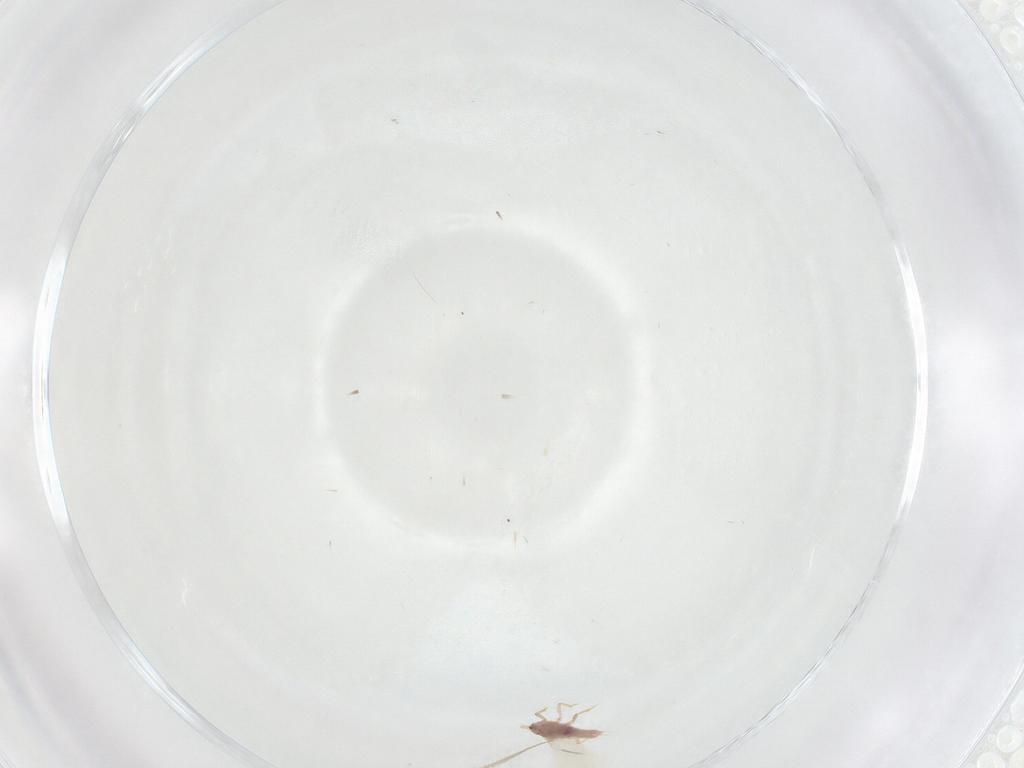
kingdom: Animalia
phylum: Arthropoda
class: Insecta
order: Hemiptera
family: Pseudococcidae
